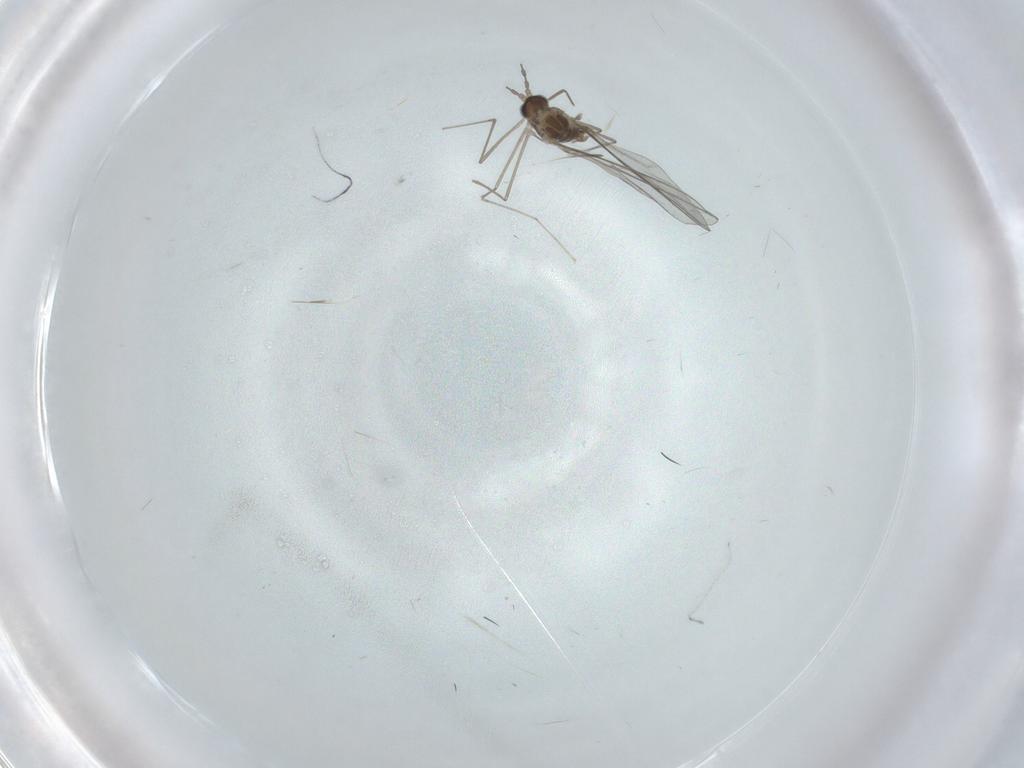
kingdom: Animalia
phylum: Arthropoda
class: Insecta
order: Diptera
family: Cecidomyiidae
